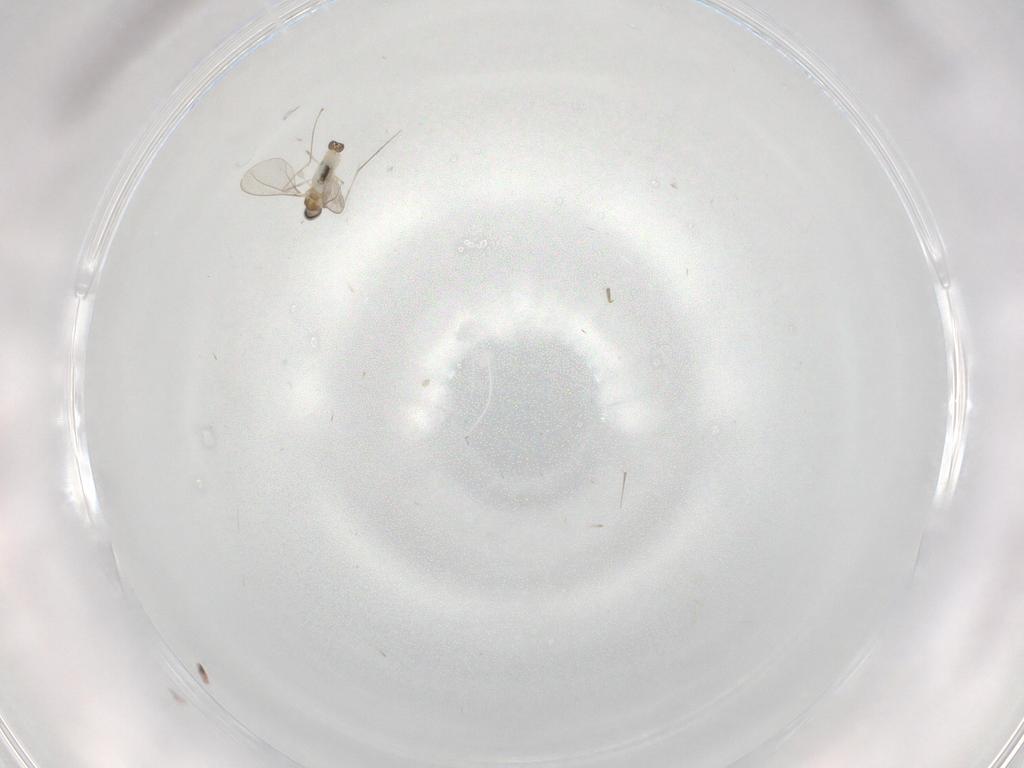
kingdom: Animalia
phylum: Arthropoda
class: Insecta
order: Diptera
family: Cecidomyiidae
